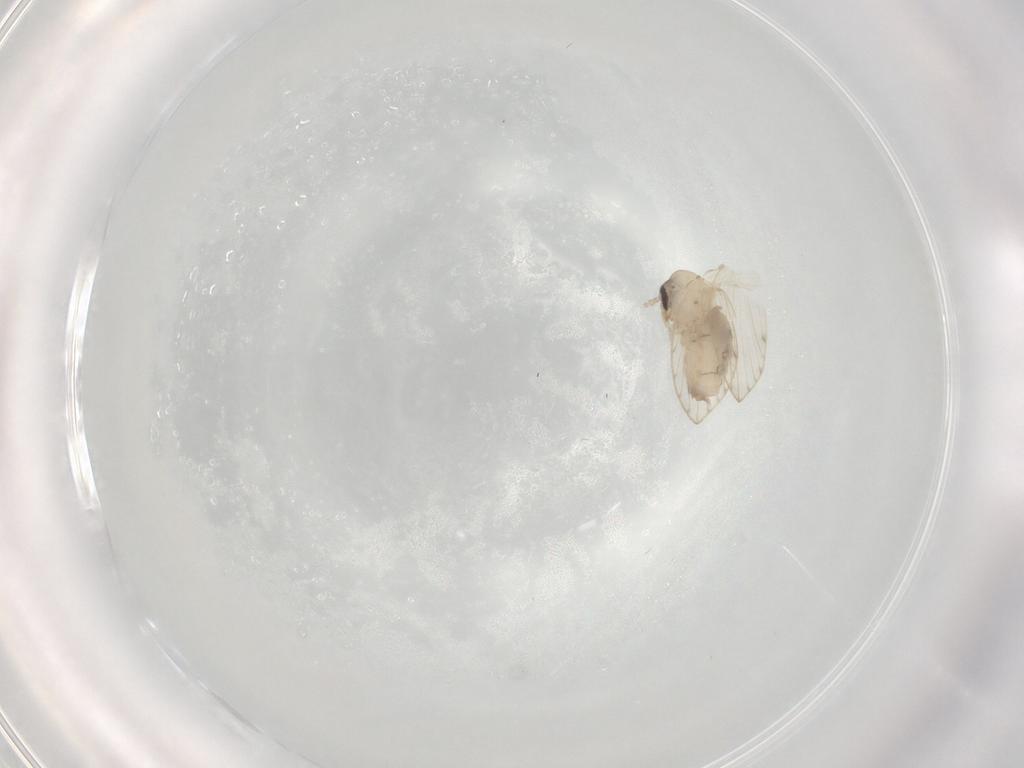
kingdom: Animalia
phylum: Arthropoda
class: Insecta
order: Diptera
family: Psychodidae
